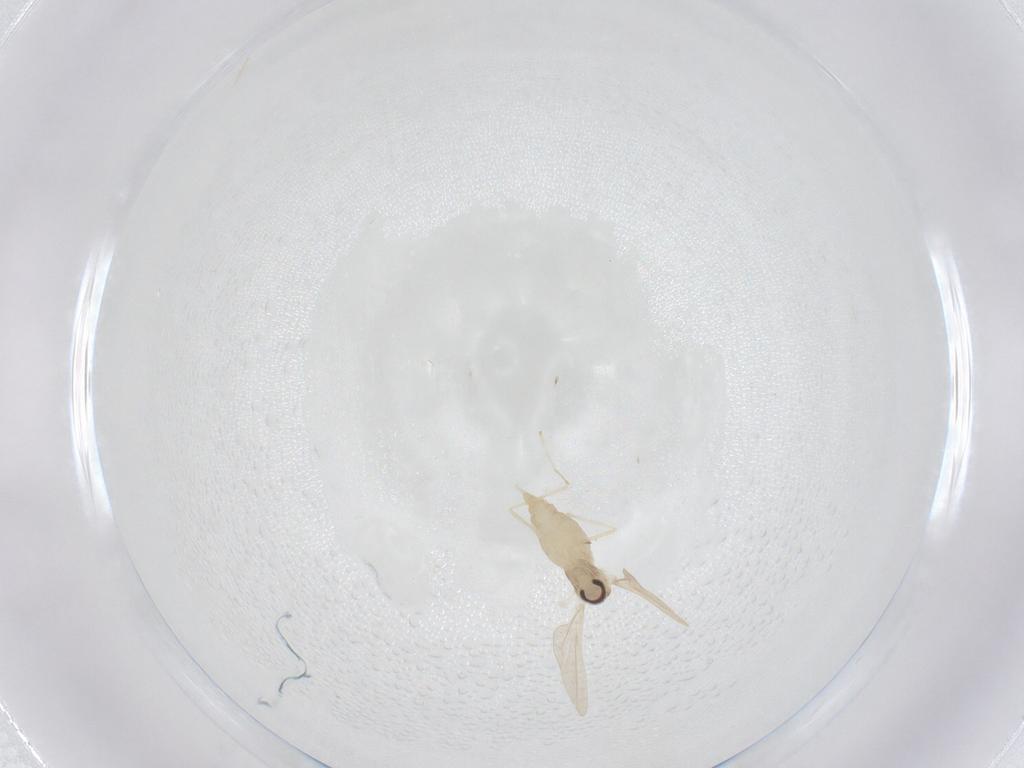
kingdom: Animalia
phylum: Arthropoda
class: Insecta
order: Diptera
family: Cecidomyiidae
